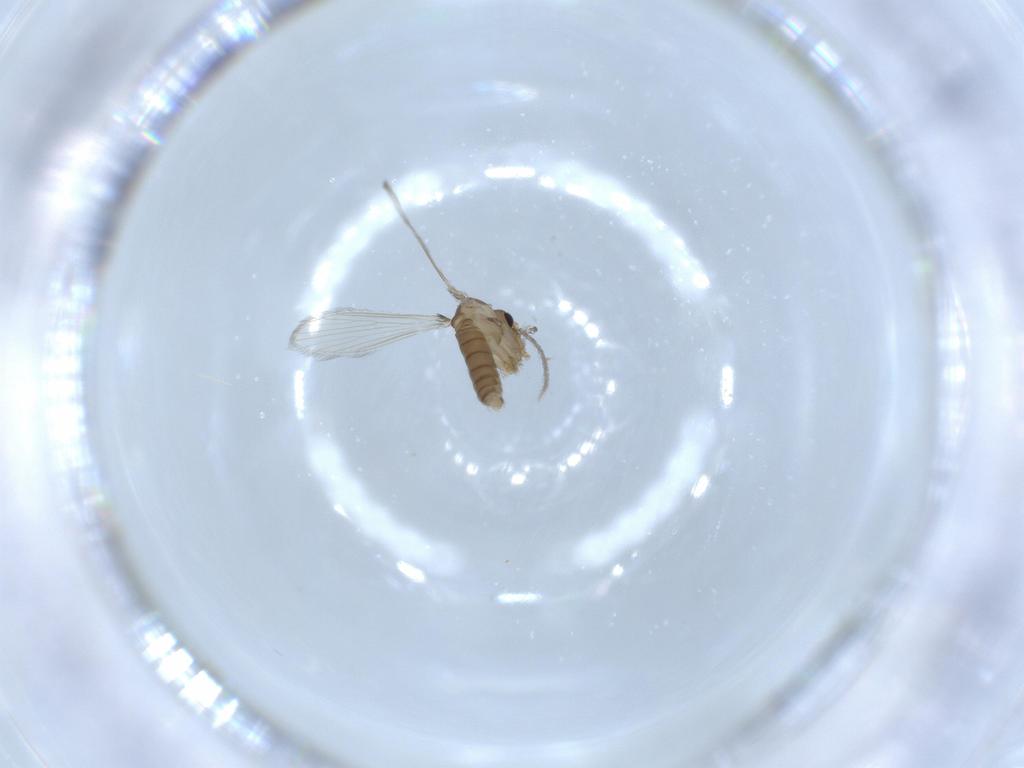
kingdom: Animalia
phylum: Arthropoda
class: Insecta
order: Diptera
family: Psychodidae
